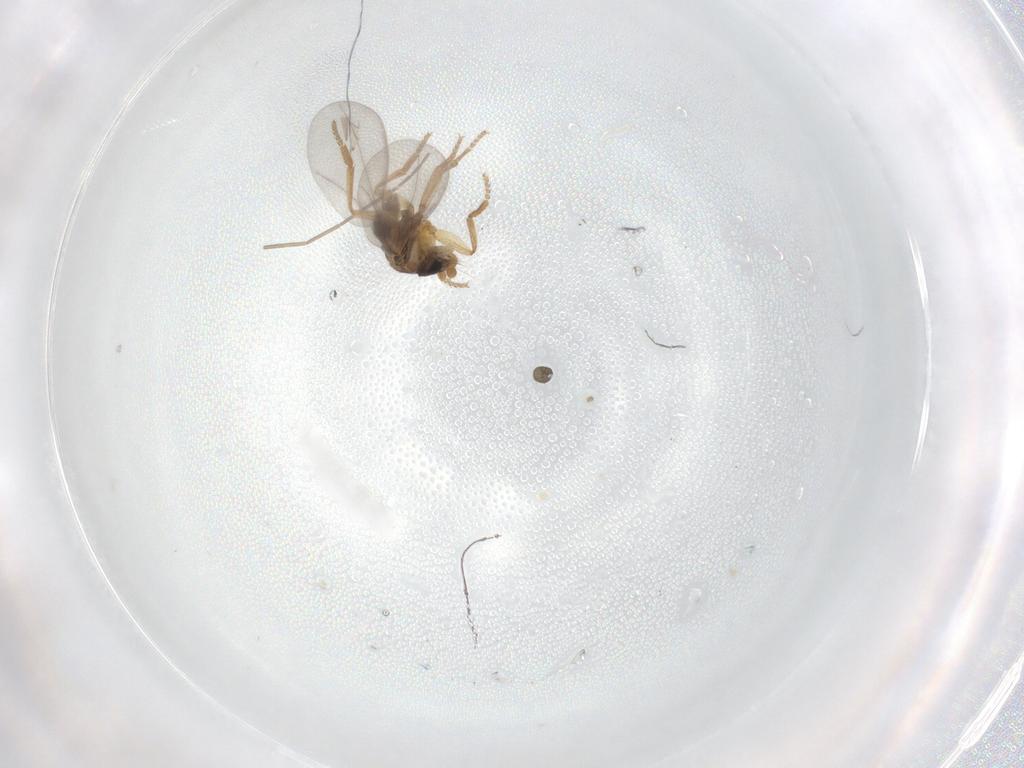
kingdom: Animalia
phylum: Arthropoda
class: Insecta
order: Diptera
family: Phoridae
